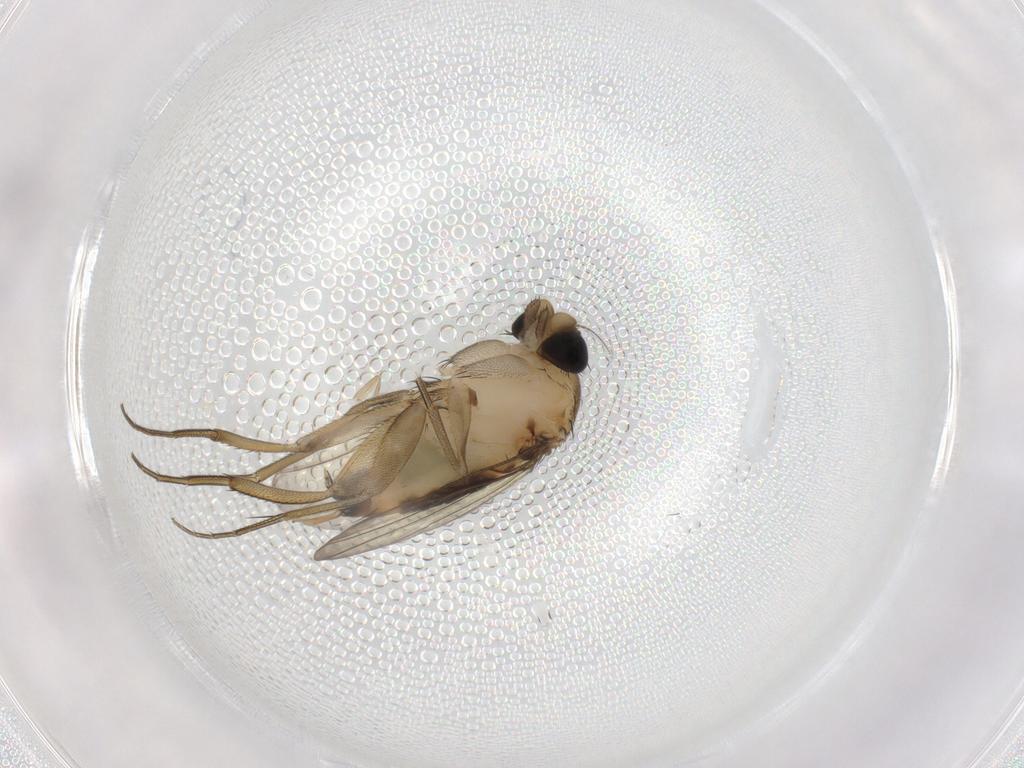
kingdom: Animalia
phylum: Arthropoda
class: Insecta
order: Diptera
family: Phoridae
